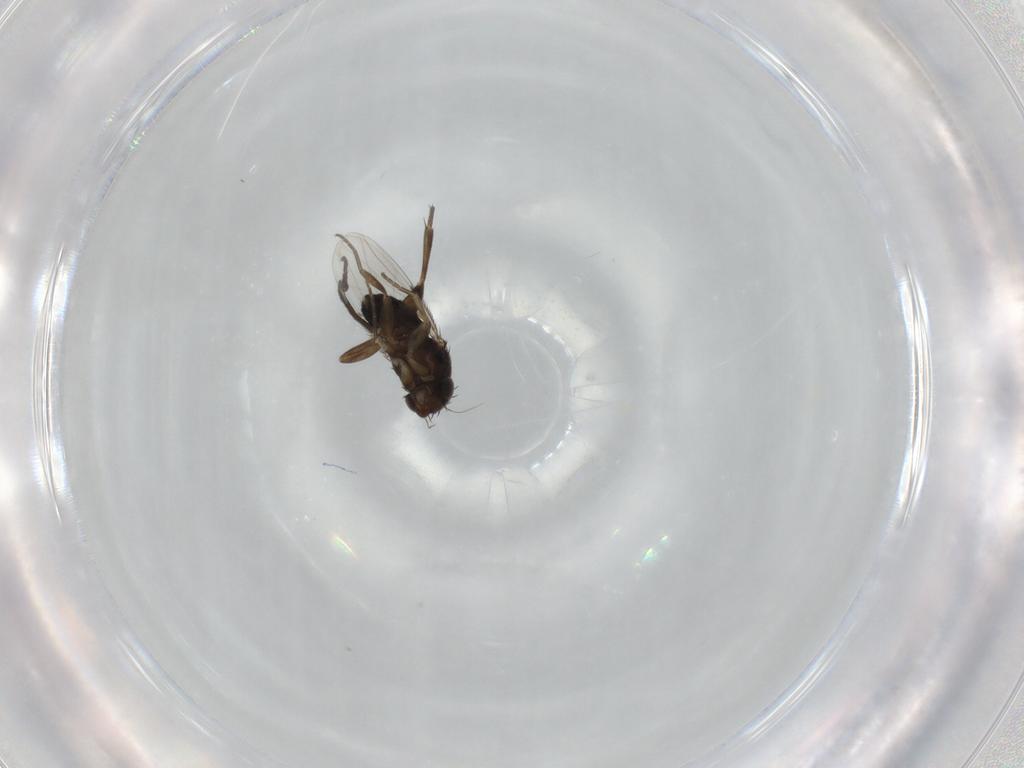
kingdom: Animalia
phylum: Arthropoda
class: Insecta
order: Diptera
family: Phoridae
